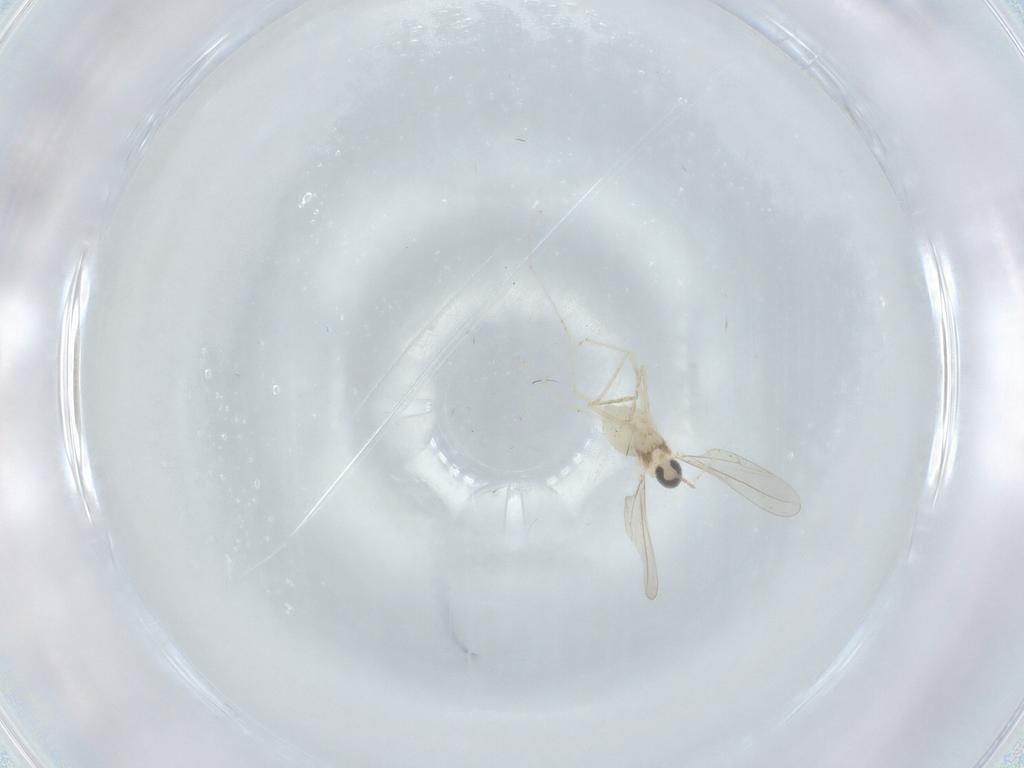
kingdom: Animalia
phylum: Arthropoda
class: Insecta
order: Diptera
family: Cecidomyiidae
